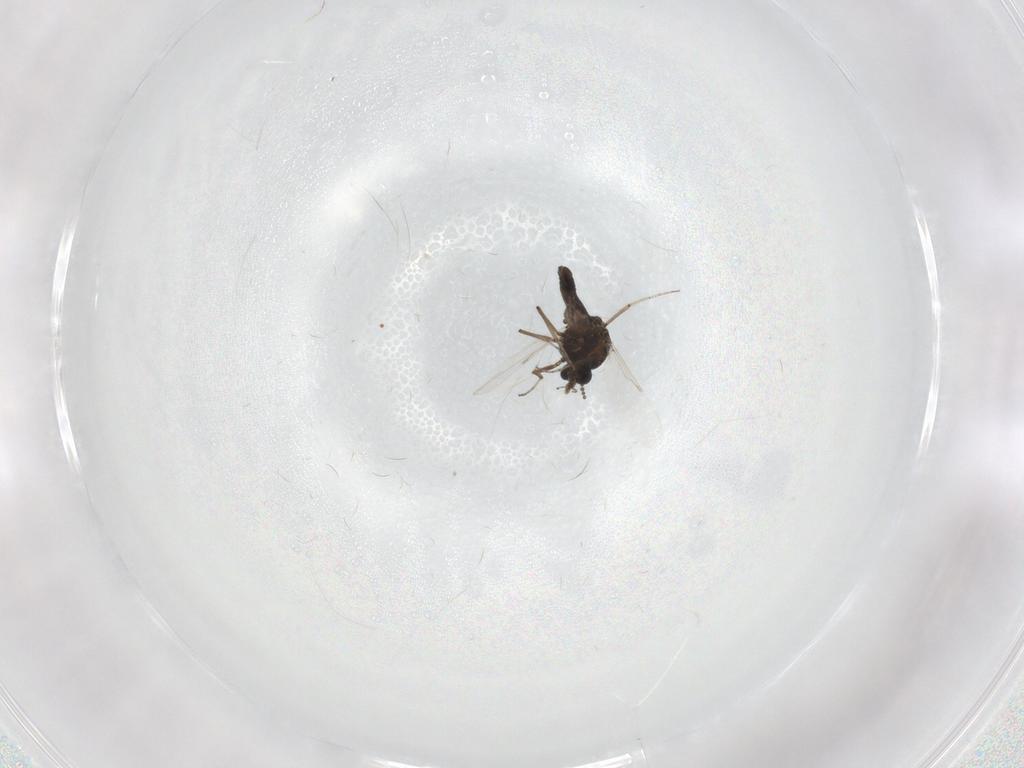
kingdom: Animalia
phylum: Arthropoda
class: Insecta
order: Diptera
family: Ceratopogonidae
